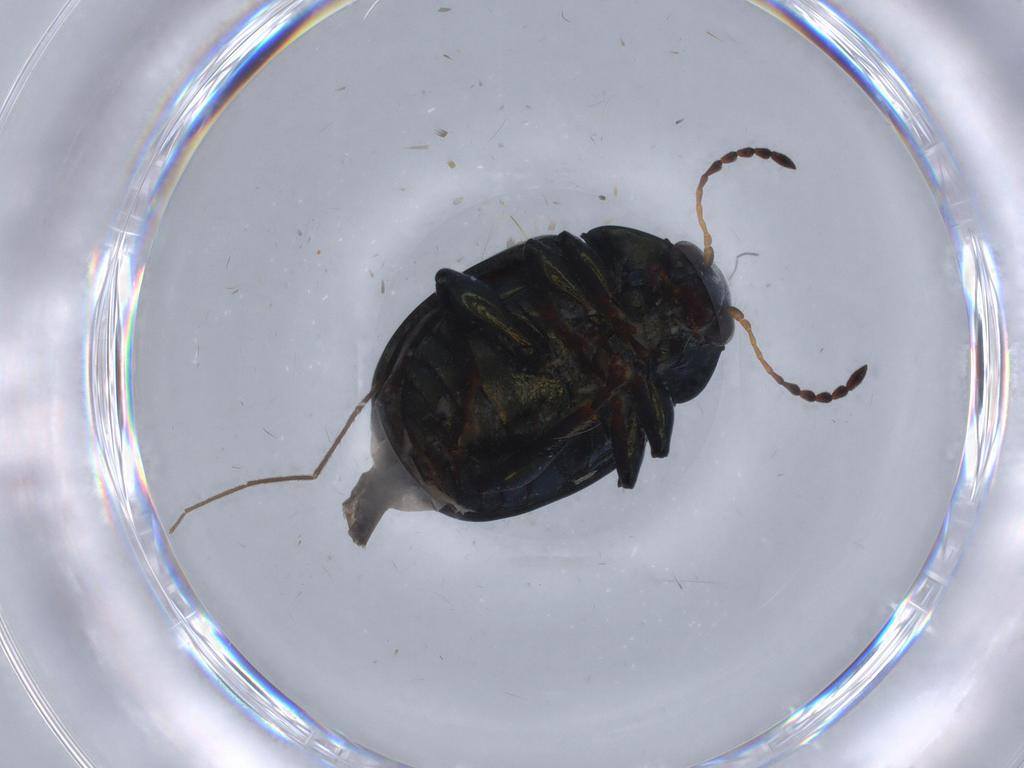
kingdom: Animalia
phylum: Arthropoda
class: Insecta
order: Coleoptera
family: Chrysomelidae
